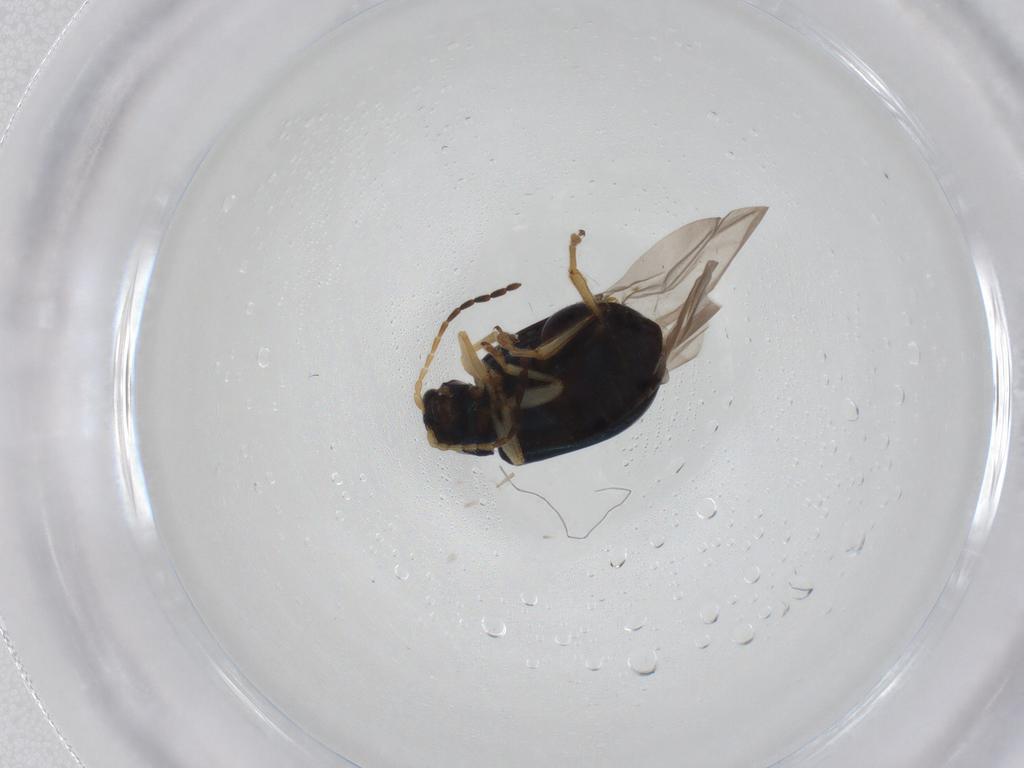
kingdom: Animalia
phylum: Arthropoda
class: Insecta
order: Coleoptera
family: Chrysomelidae
